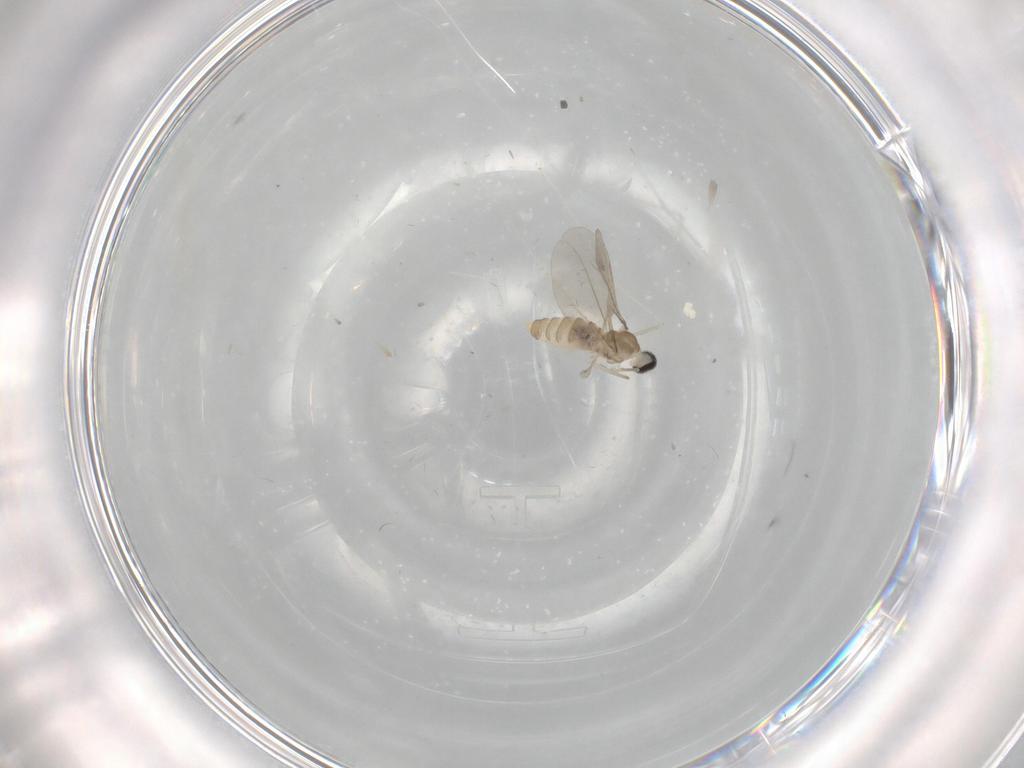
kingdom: Animalia
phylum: Arthropoda
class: Insecta
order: Diptera
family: Cecidomyiidae
